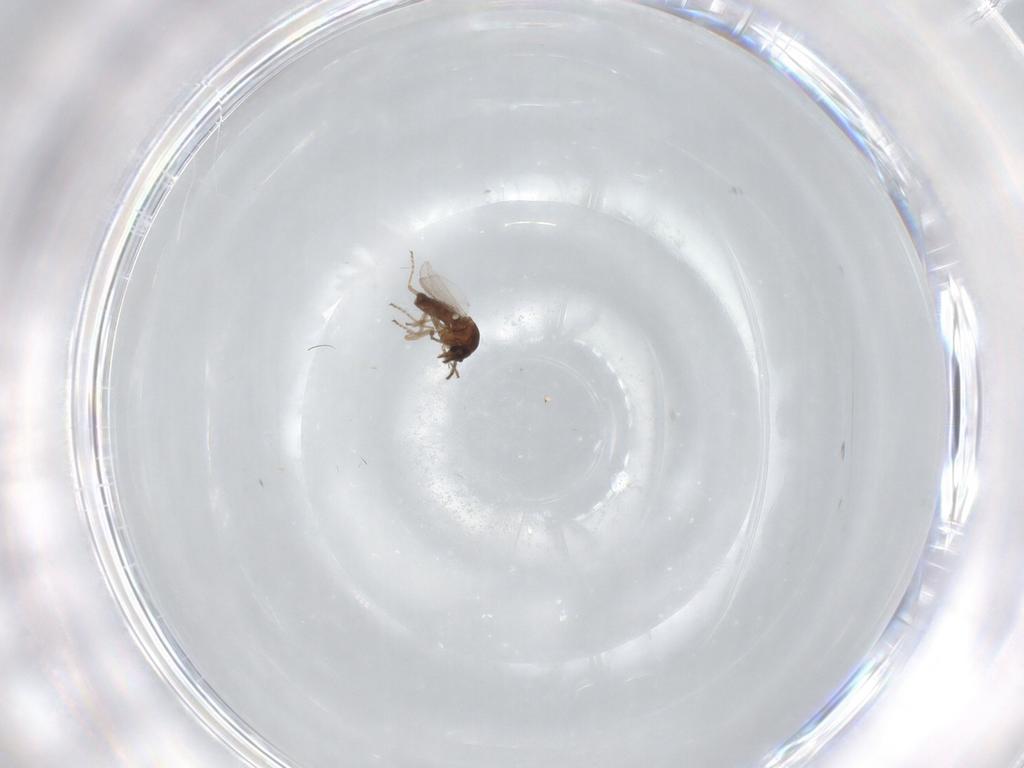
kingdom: Animalia
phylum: Arthropoda
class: Insecta
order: Diptera
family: Ceratopogonidae
